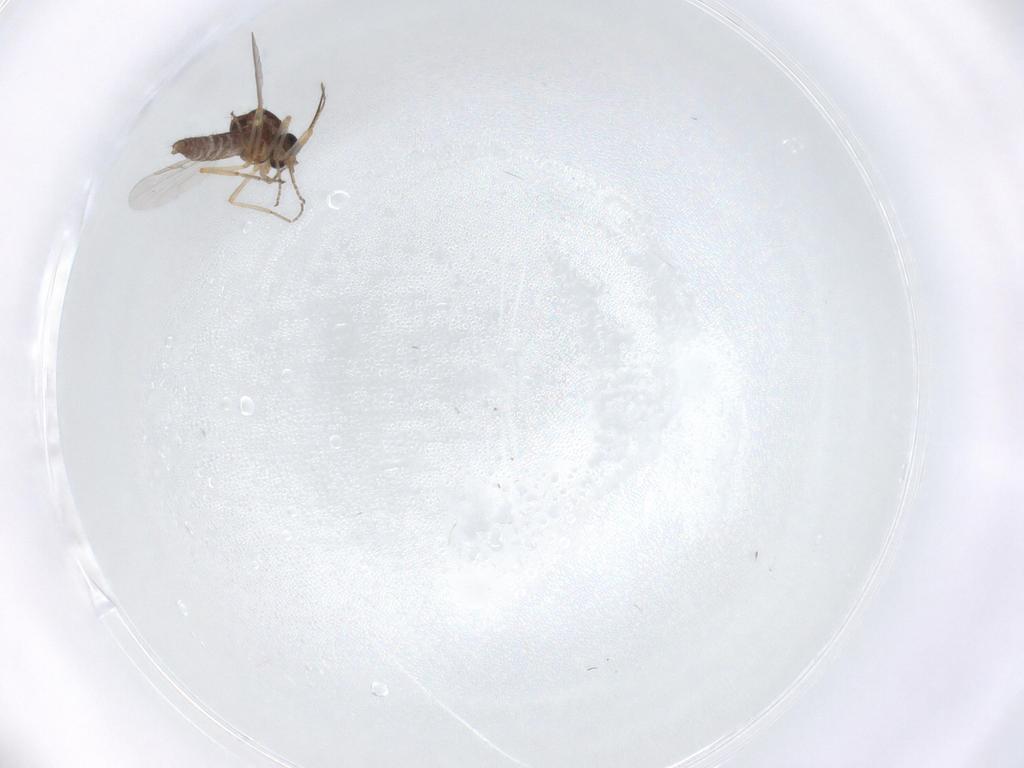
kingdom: Animalia
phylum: Arthropoda
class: Insecta
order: Diptera
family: Ceratopogonidae
